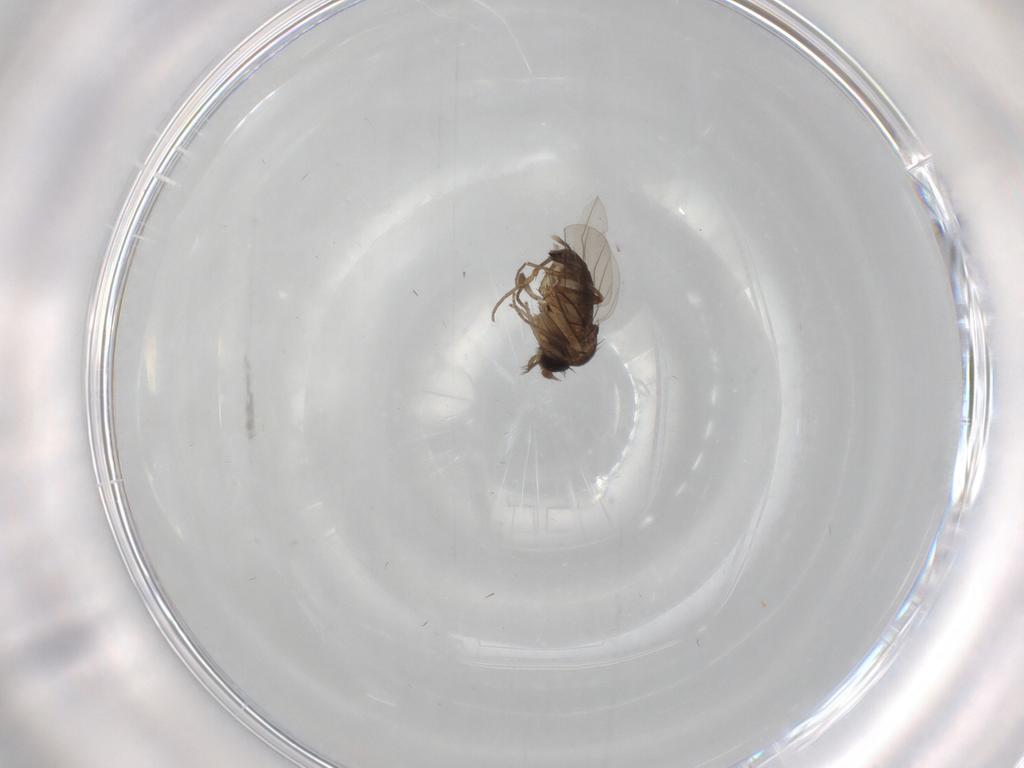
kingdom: Animalia
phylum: Arthropoda
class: Insecta
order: Diptera
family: Phoridae
